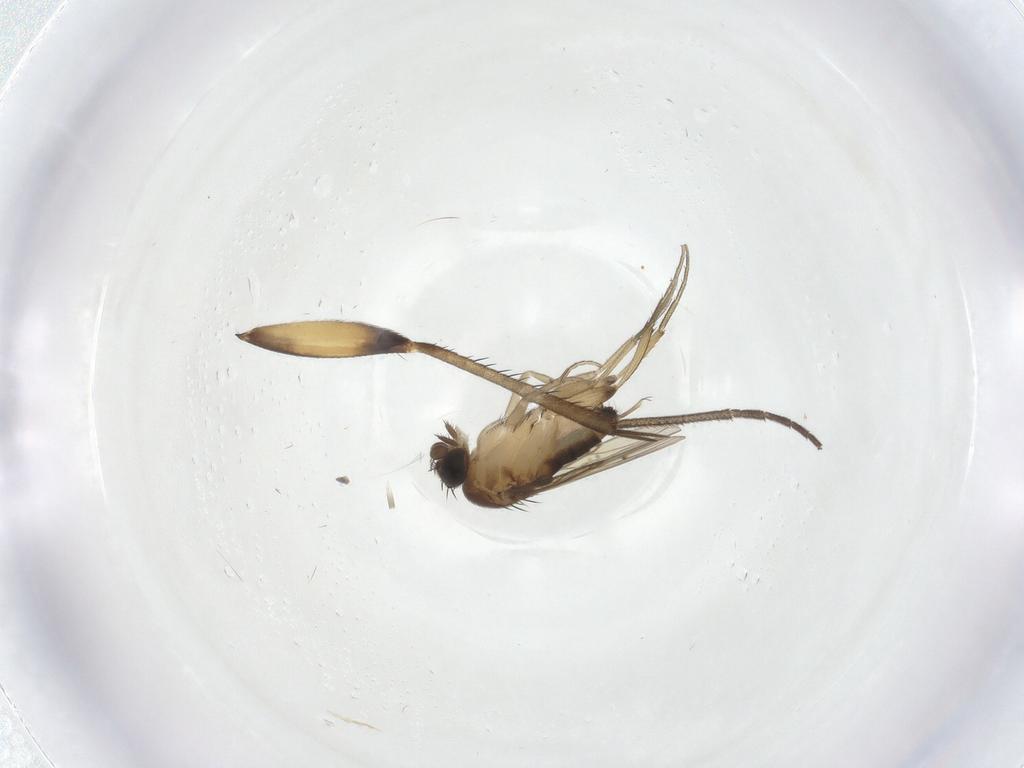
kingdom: Animalia
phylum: Arthropoda
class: Insecta
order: Diptera
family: Phoridae
